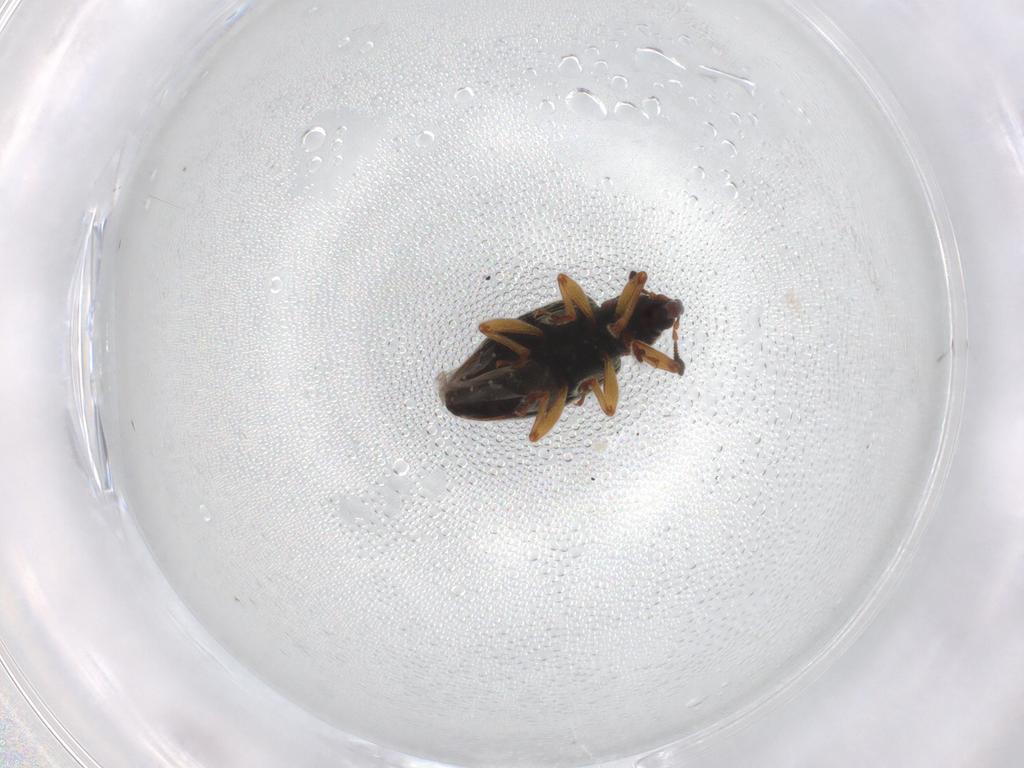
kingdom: Animalia
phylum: Arthropoda
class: Insecta
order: Coleoptera
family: Curculionidae
